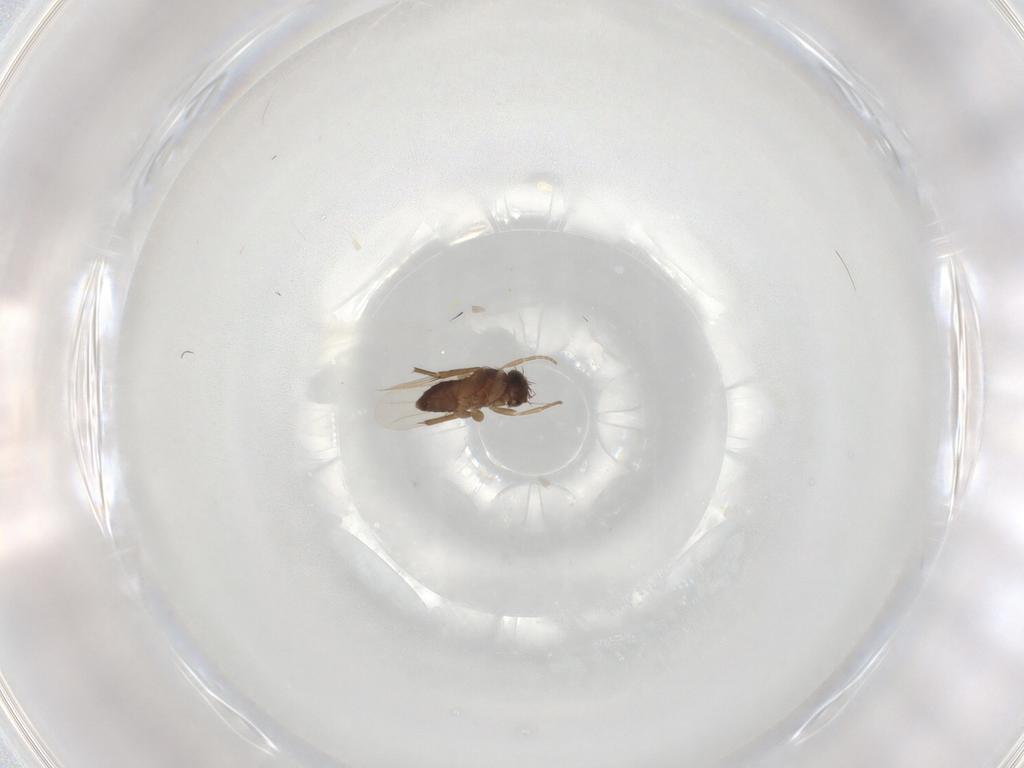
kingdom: Animalia
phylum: Arthropoda
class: Insecta
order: Diptera
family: Phoridae
